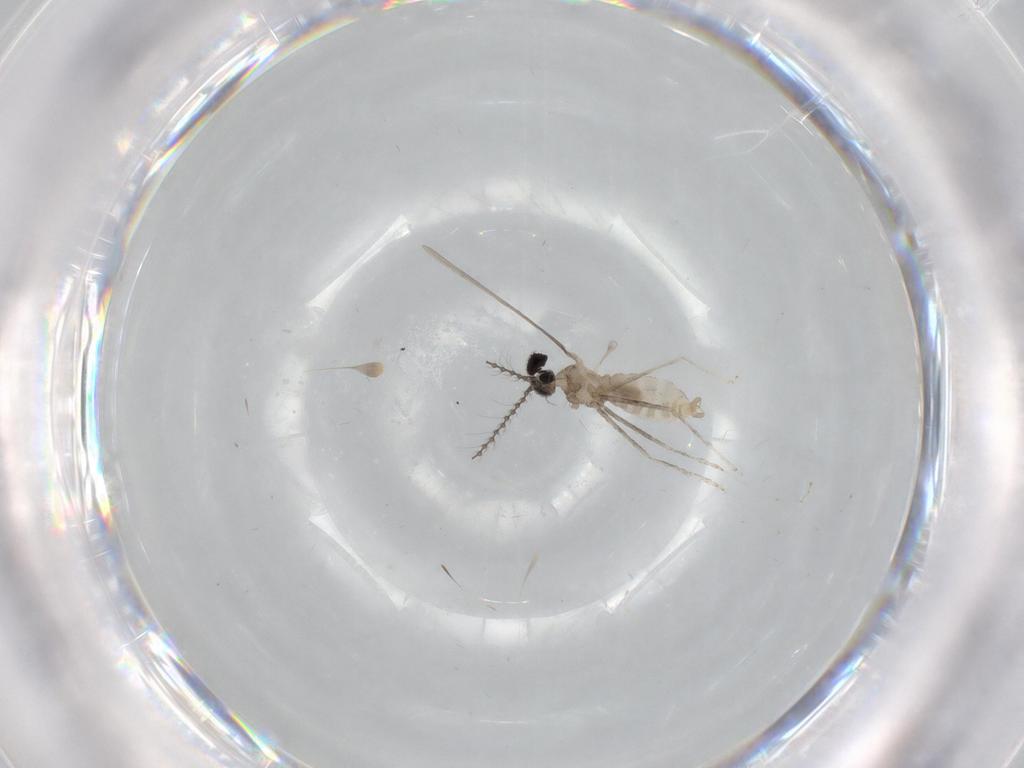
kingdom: Animalia
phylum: Arthropoda
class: Insecta
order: Diptera
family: Cecidomyiidae
